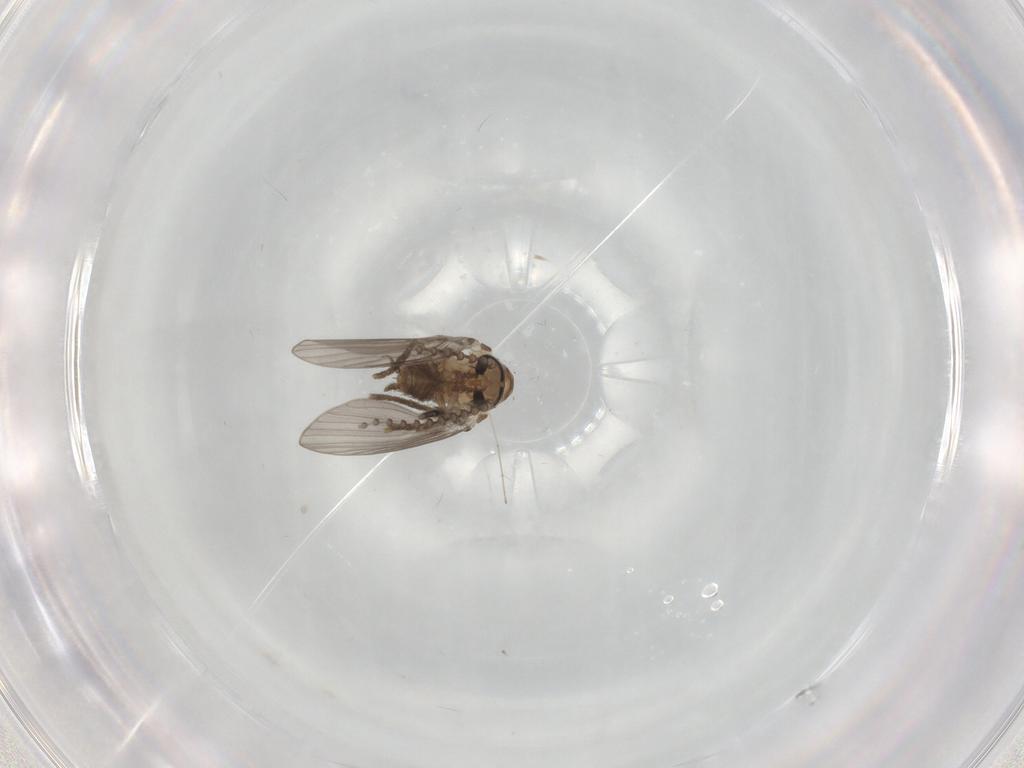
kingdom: Animalia
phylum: Arthropoda
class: Insecta
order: Diptera
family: Psychodidae
